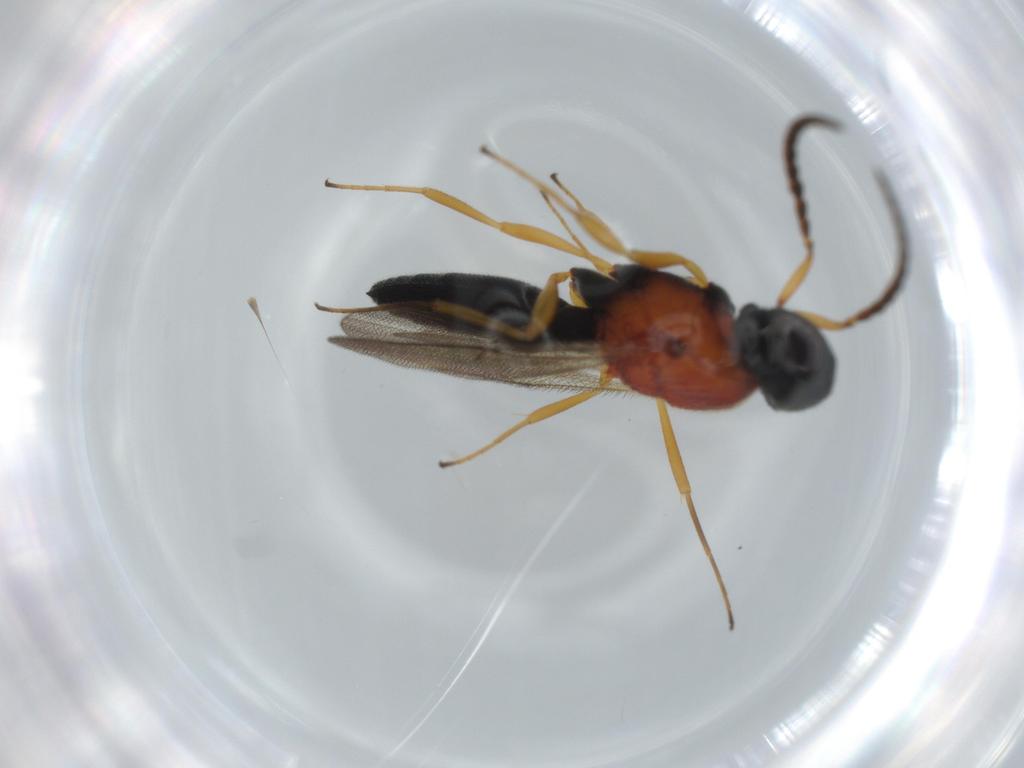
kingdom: Animalia
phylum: Arthropoda
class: Insecta
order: Hymenoptera
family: Scelionidae
